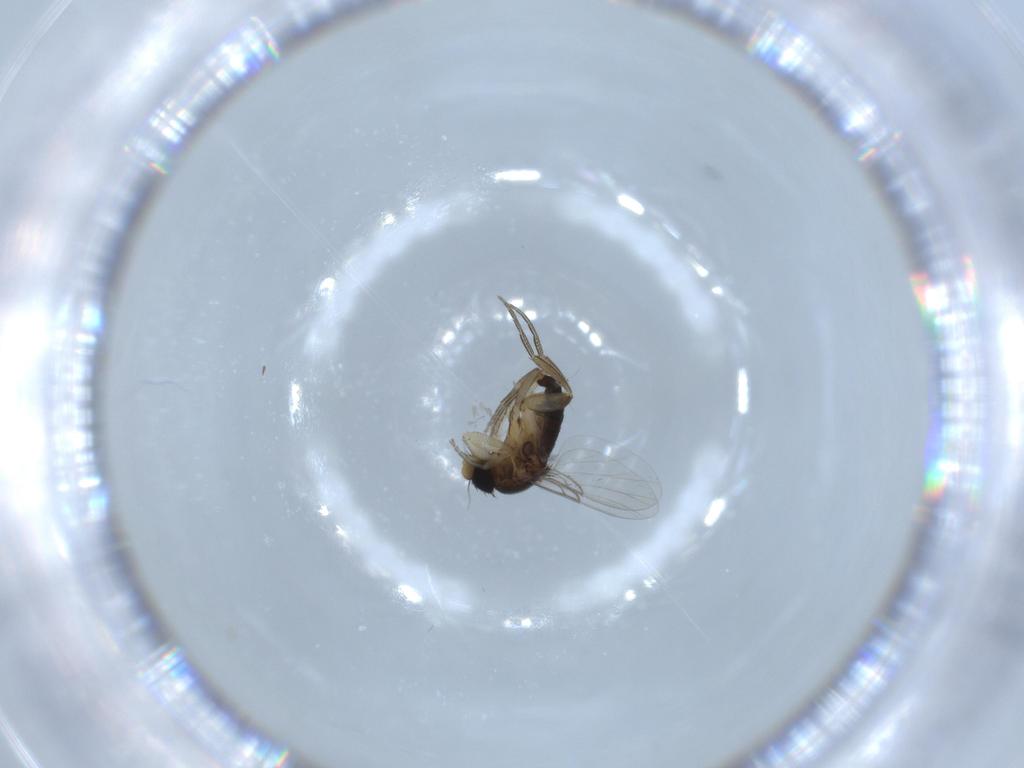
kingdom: Animalia
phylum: Arthropoda
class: Insecta
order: Diptera
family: Phoridae
